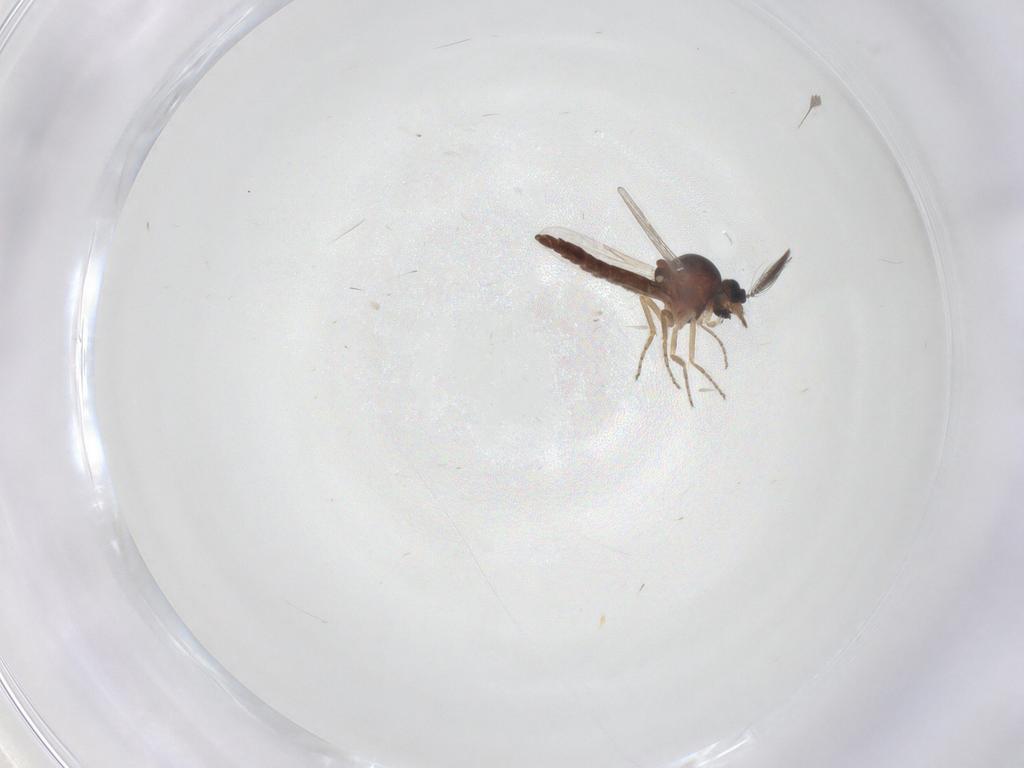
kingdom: Animalia
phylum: Arthropoda
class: Insecta
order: Diptera
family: Ceratopogonidae
